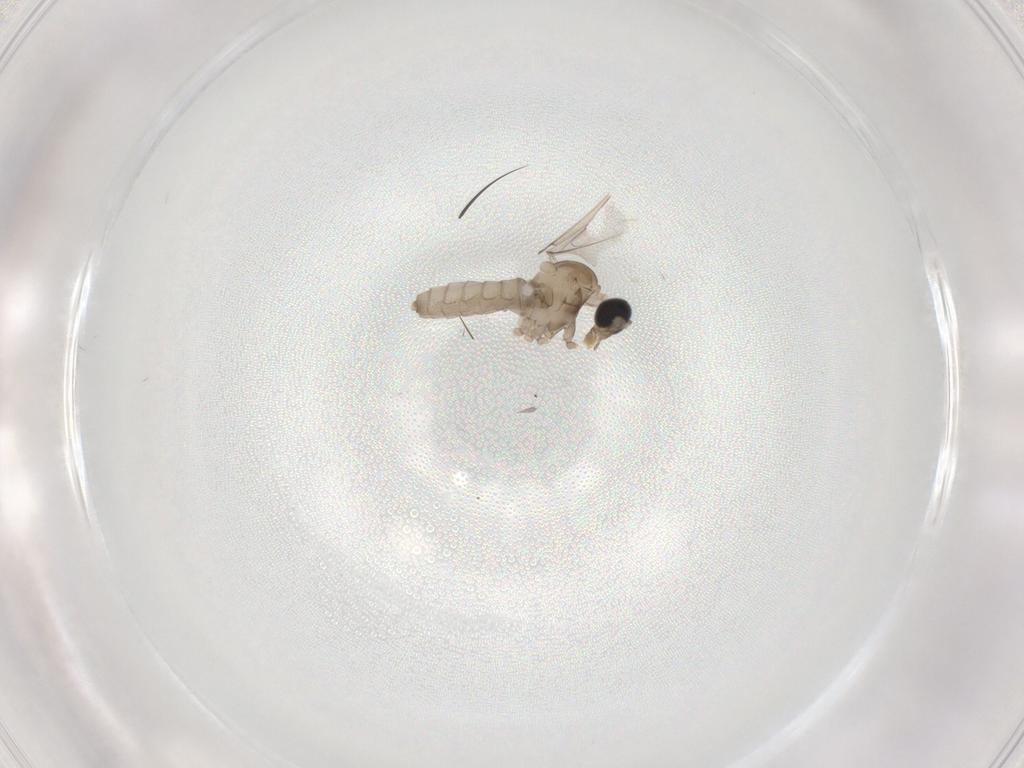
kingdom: Animalia
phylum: Arthropoda
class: Insecta
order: Diptera
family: Cecidomyiidae
